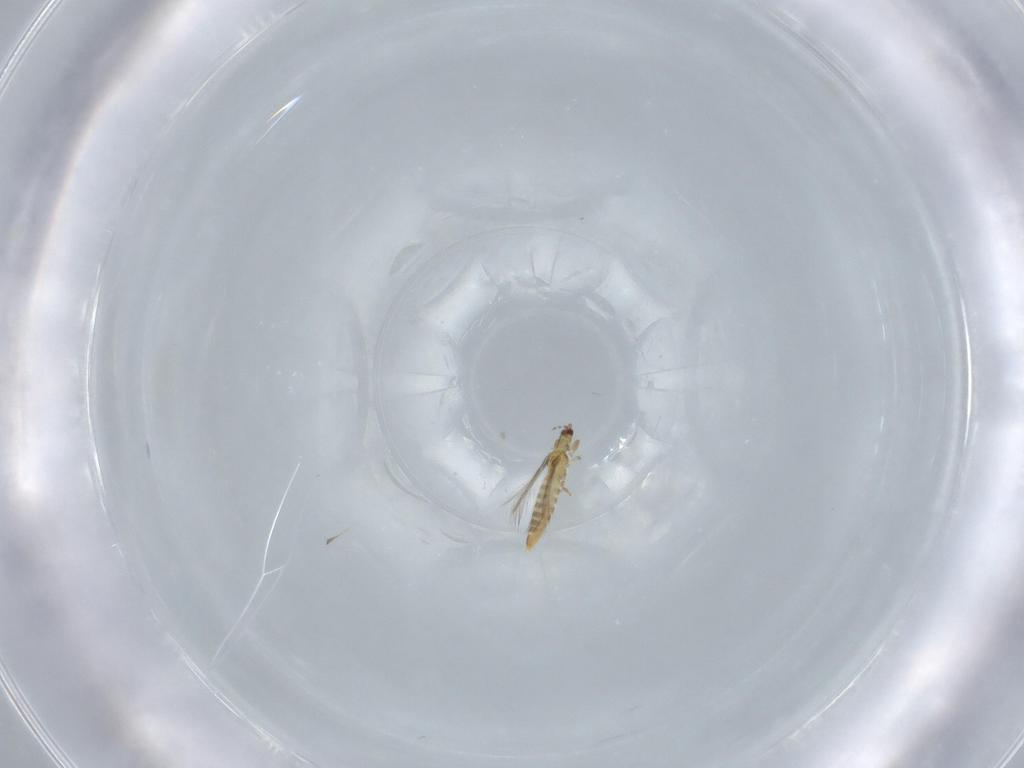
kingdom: Animalia
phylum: Arthropoda
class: Insecta
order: Thysanoptera
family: Thripidae
